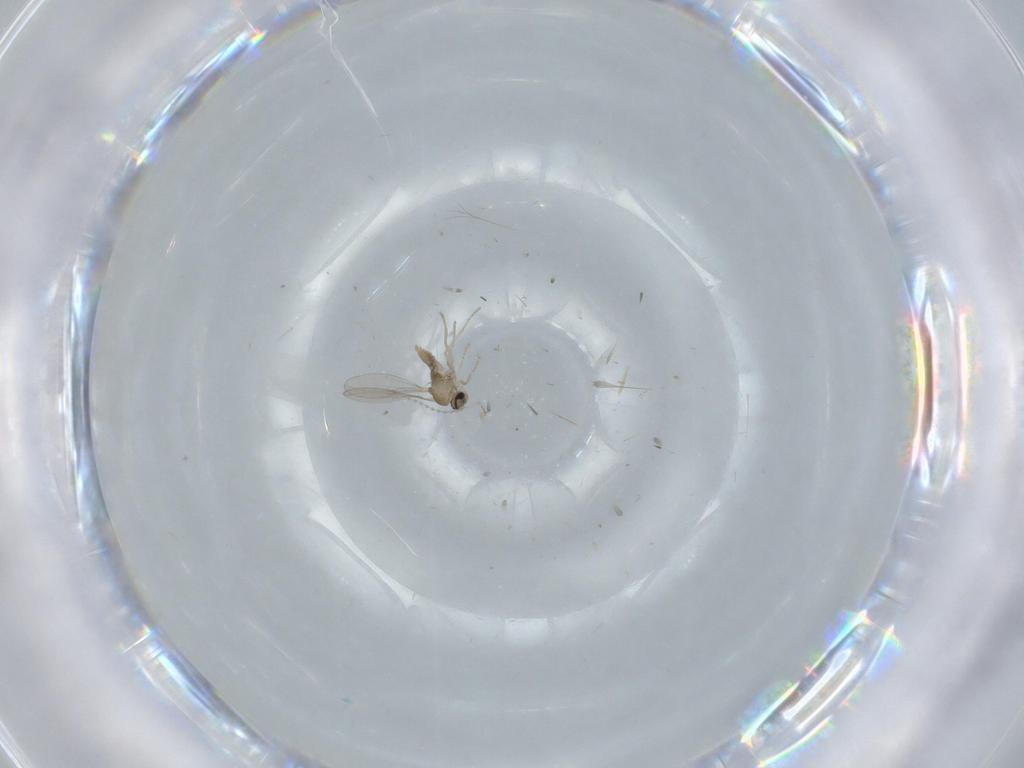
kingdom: Animalia
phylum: Arthropoda
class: Insecta
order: Diptera
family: Cecidomyiidae
